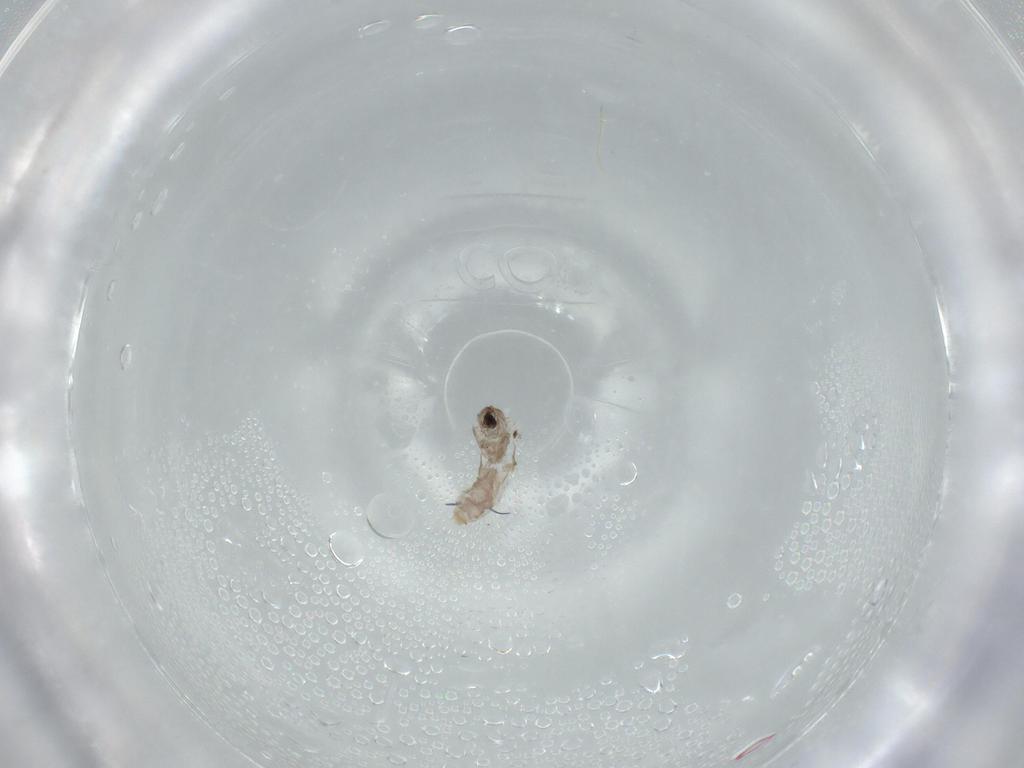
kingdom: Animalia
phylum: Arthropoda
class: Insecta
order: Diptera
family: Cecidomyiidae
